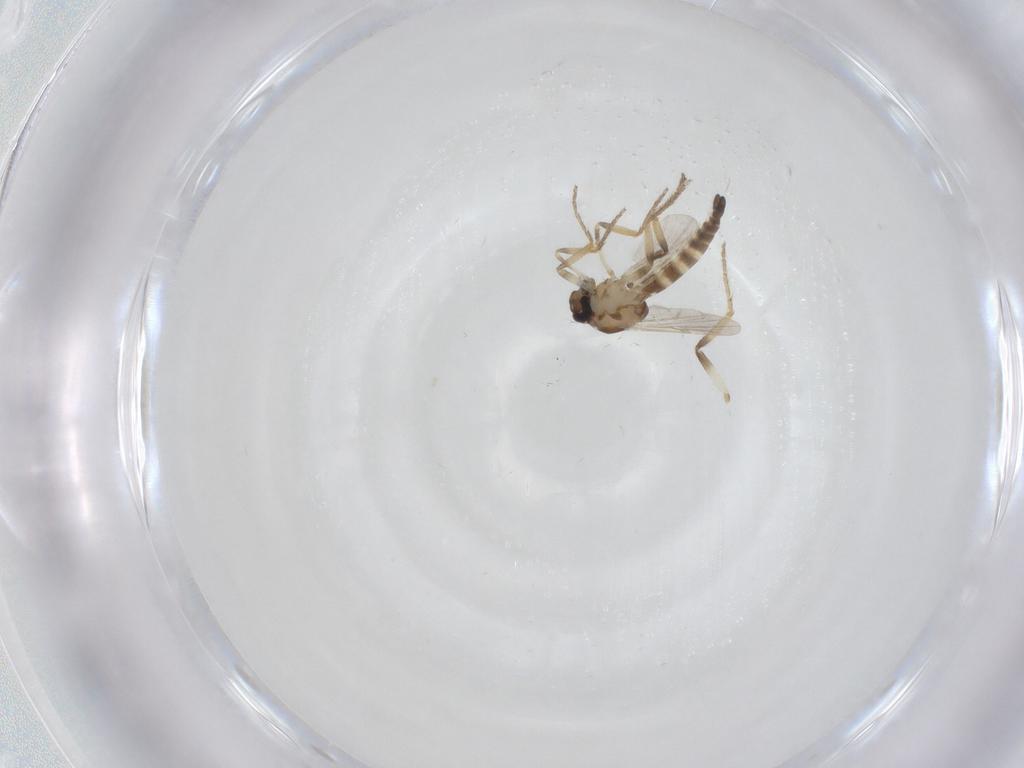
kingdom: Animalia
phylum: Arthropoda
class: Insecta
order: Diptera
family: Ceratopogonidae
